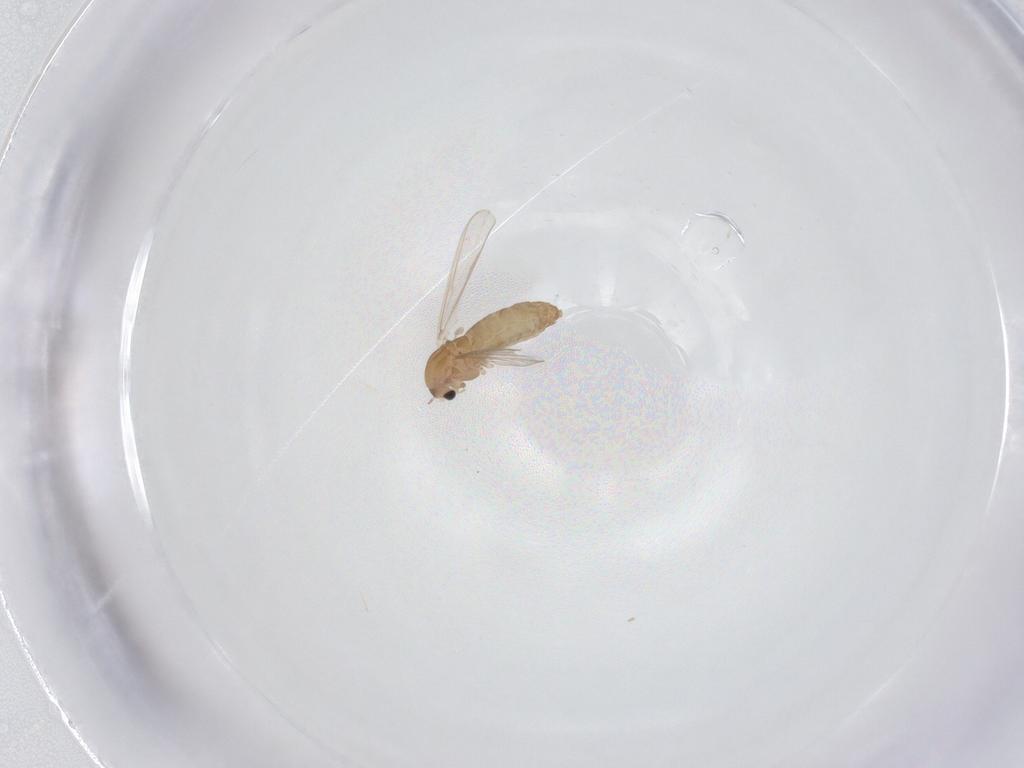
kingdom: Animalia
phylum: Arthropoda
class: Insecta
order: Diptera
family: Chironomidae
